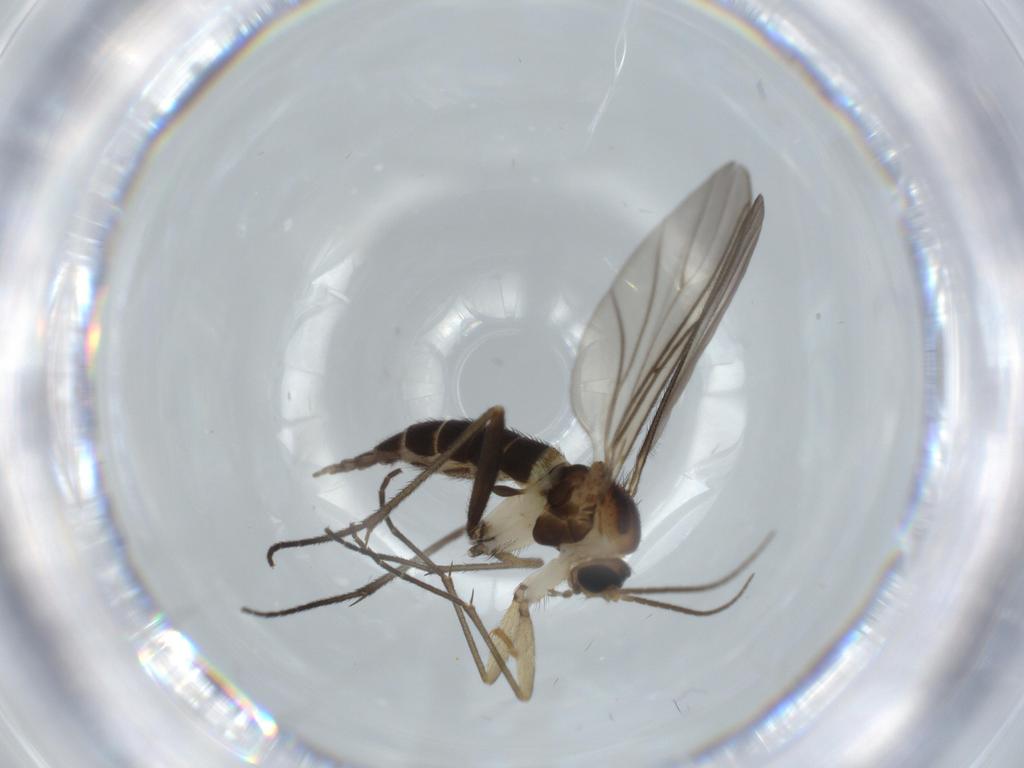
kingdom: Animalia
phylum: Arthropoda
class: Insecta
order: Diptera
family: Sciaridae
